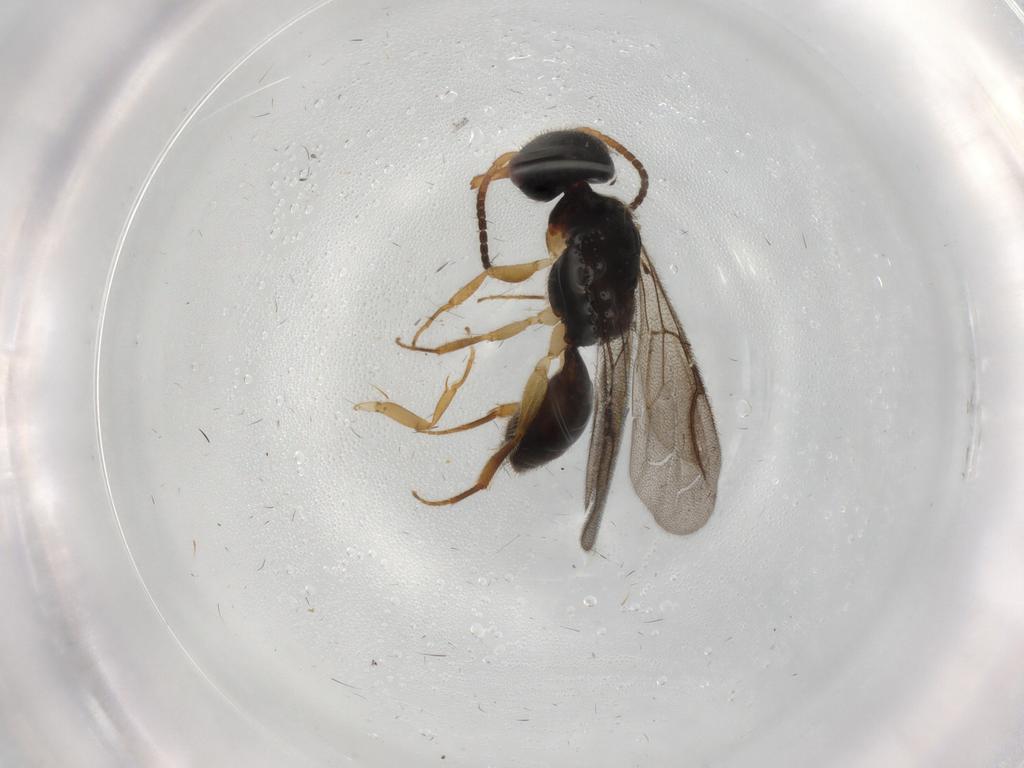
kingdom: Animalia
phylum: Arthropoda
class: Insecta
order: Hymenoptera
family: Bethylidae
